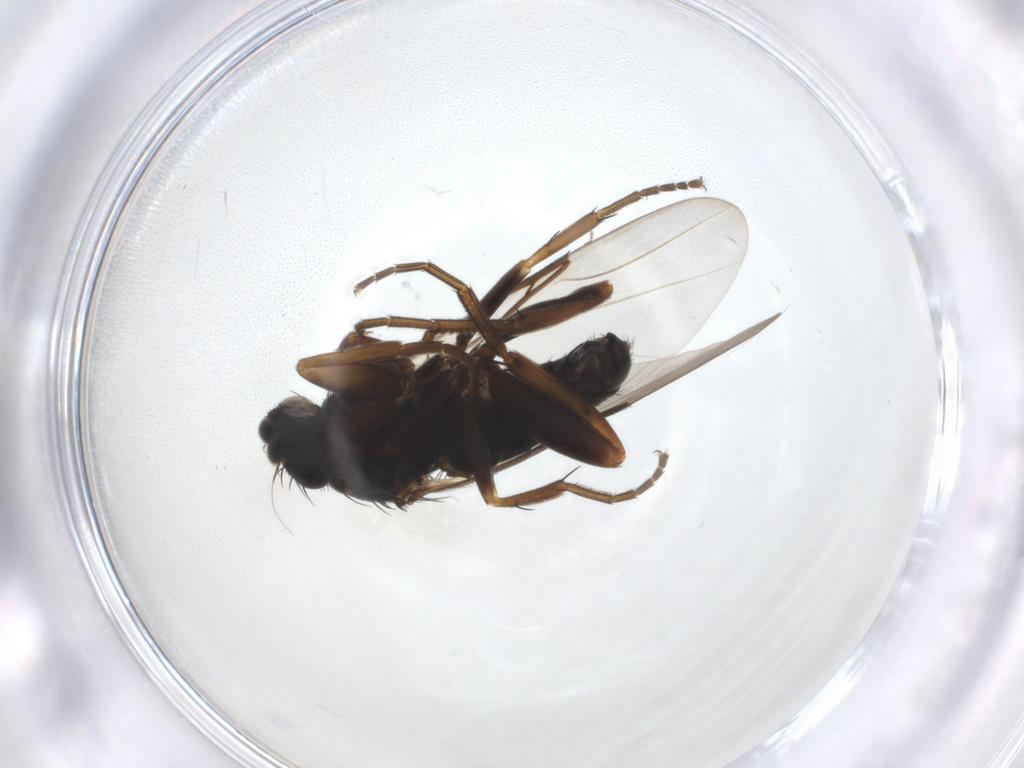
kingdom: Animalia
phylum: Arthropoda
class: Insecta
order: Diptera
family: Phoridae
